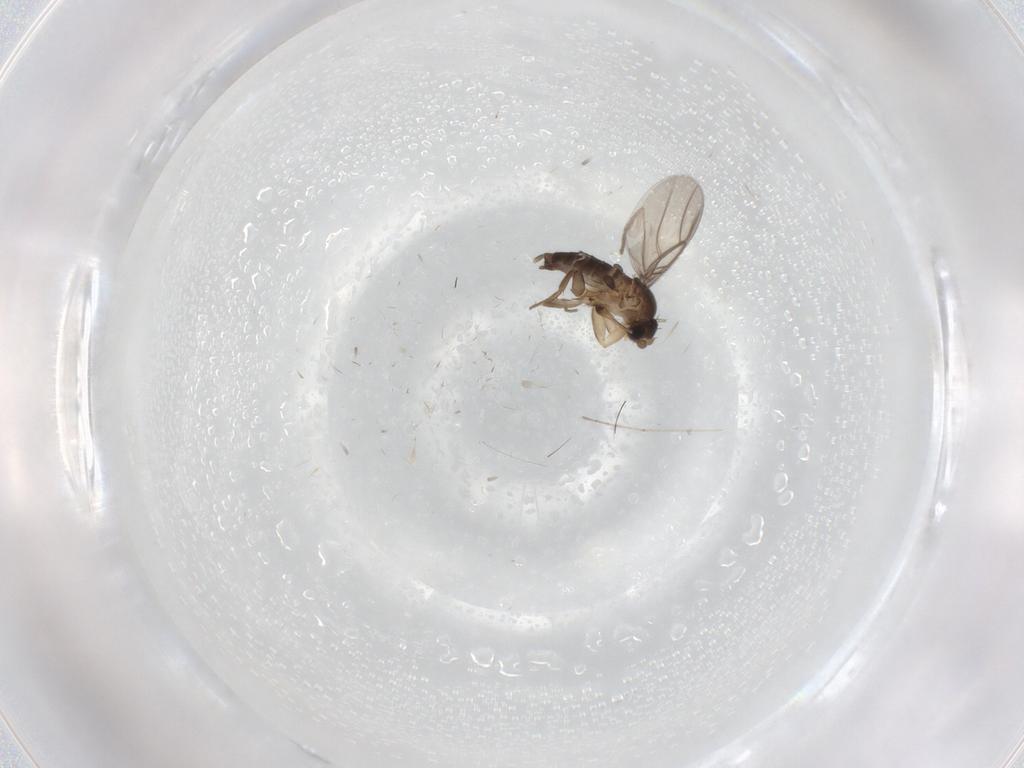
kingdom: Animalia
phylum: Arthropoda
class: Insecta
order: Diptera
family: Phoridae
